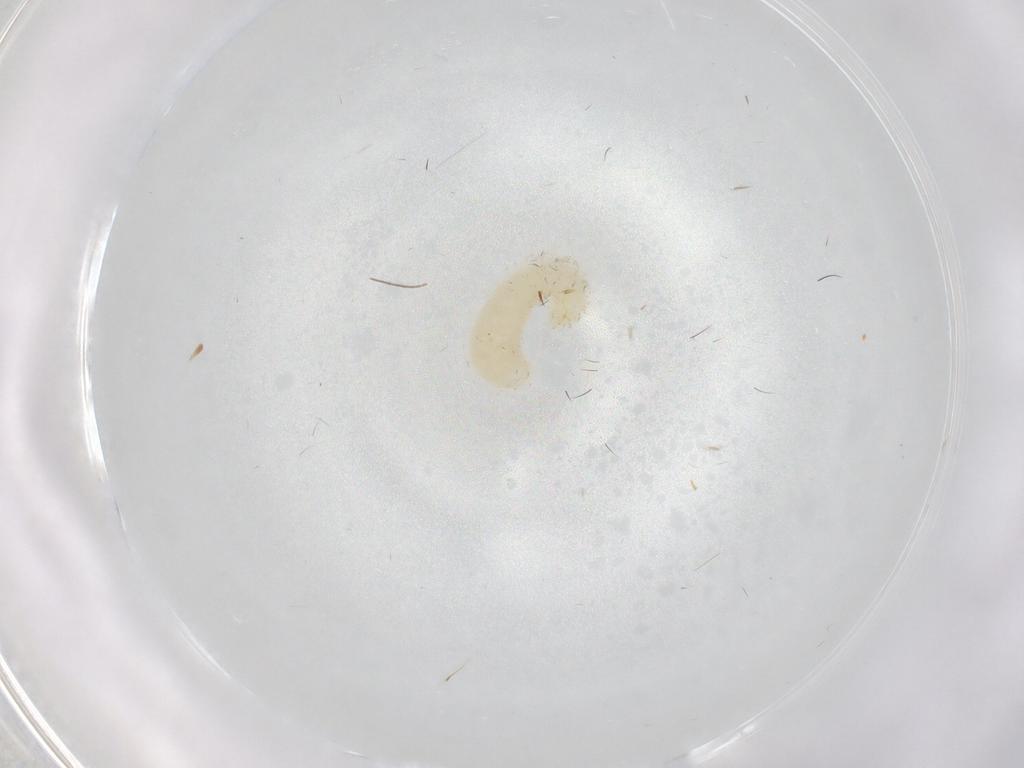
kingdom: Animalia
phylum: Arthropoda
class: Insecta
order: Hymenoptera
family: Formicidae
